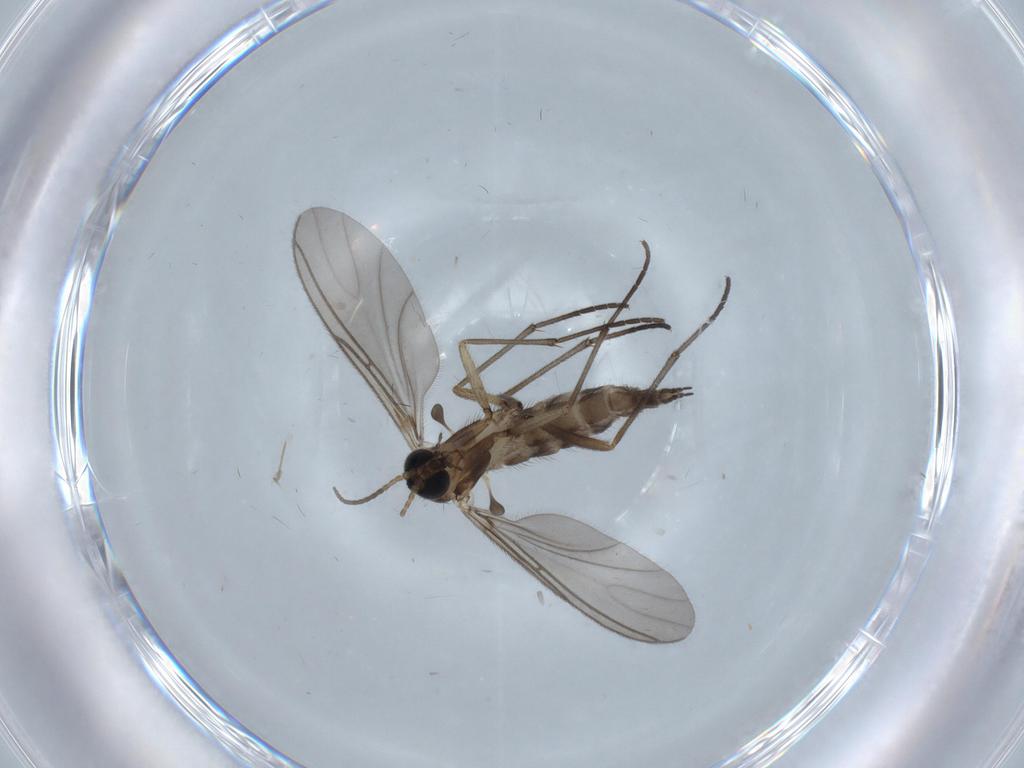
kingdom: Animalia
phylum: Arthropoda
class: Insecta
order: Diptera
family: Sciaridae
